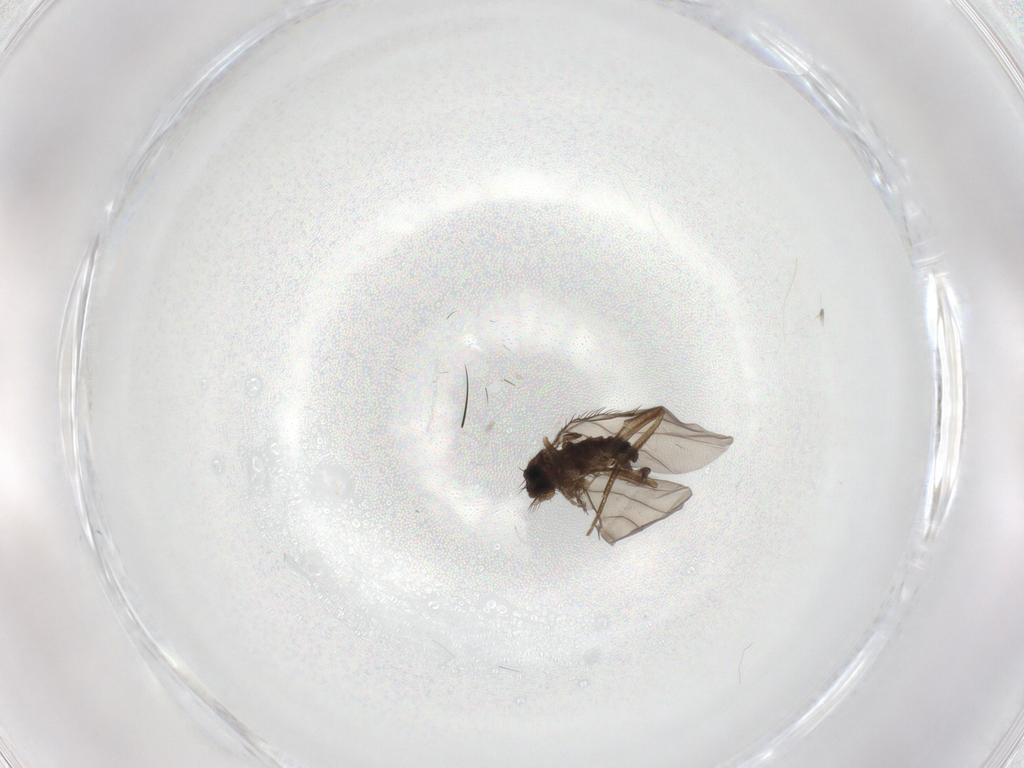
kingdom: Animalia
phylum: Arthropoda
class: Insecta
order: Diptera
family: Phoridae
